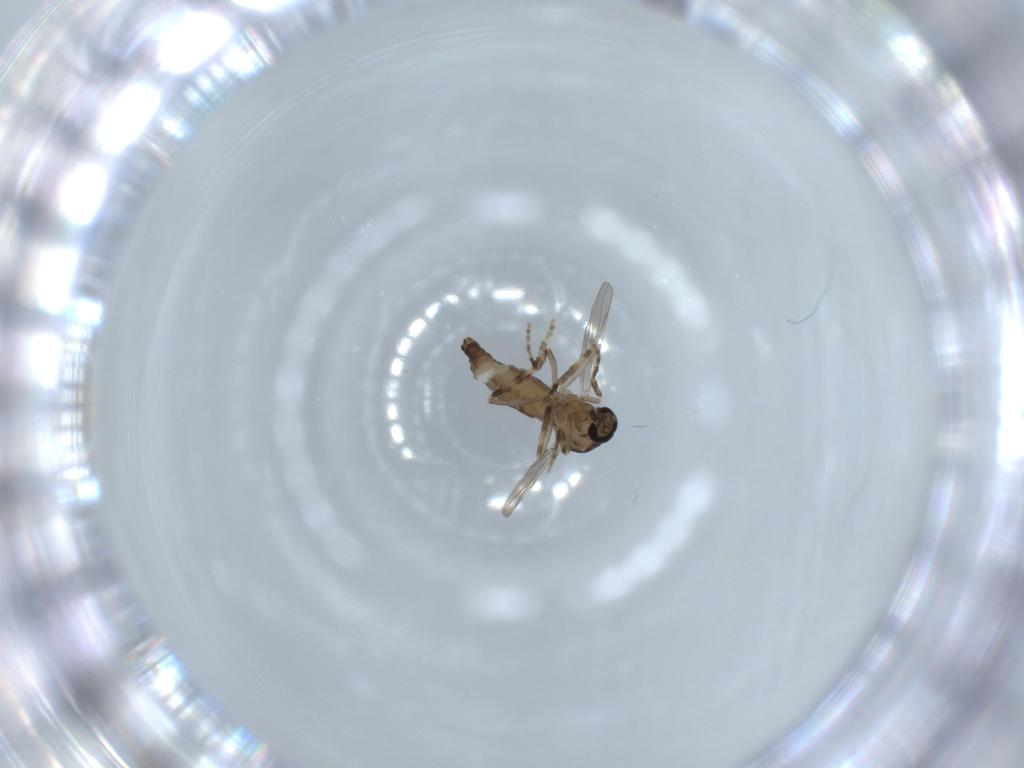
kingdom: Animalia
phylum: Arthropoda
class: Insecta
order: Diptera
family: Ceratopogonidae
